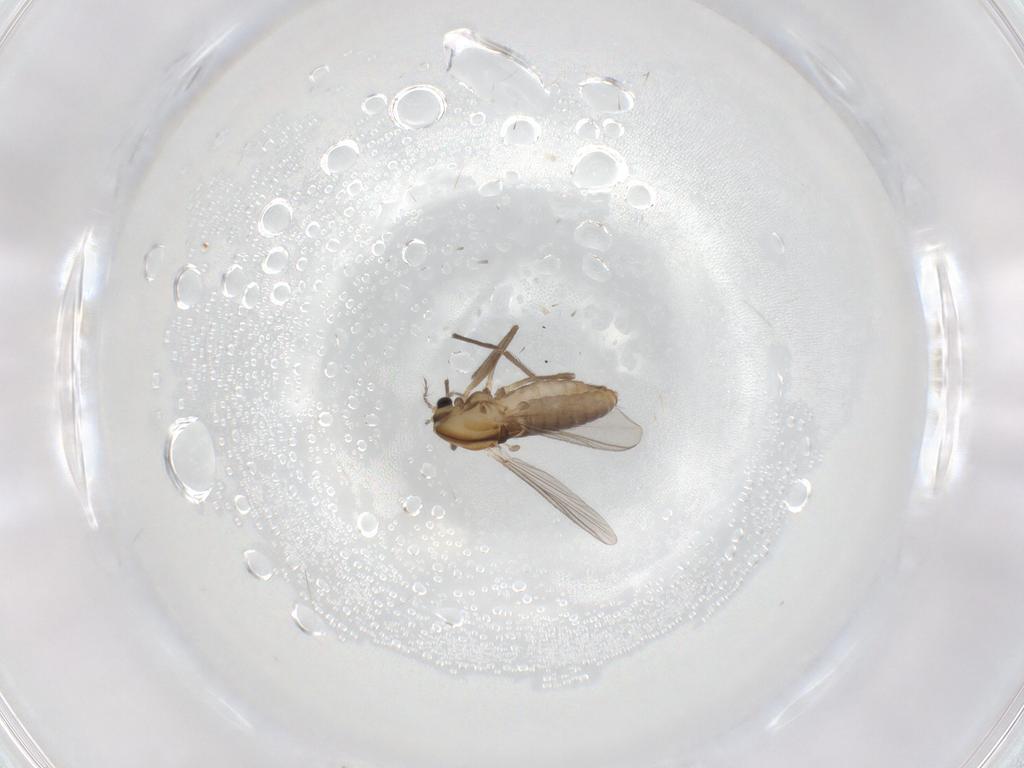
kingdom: Animalia
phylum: Arthropoda
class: Insecta
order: Diptera
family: Chironomidae
